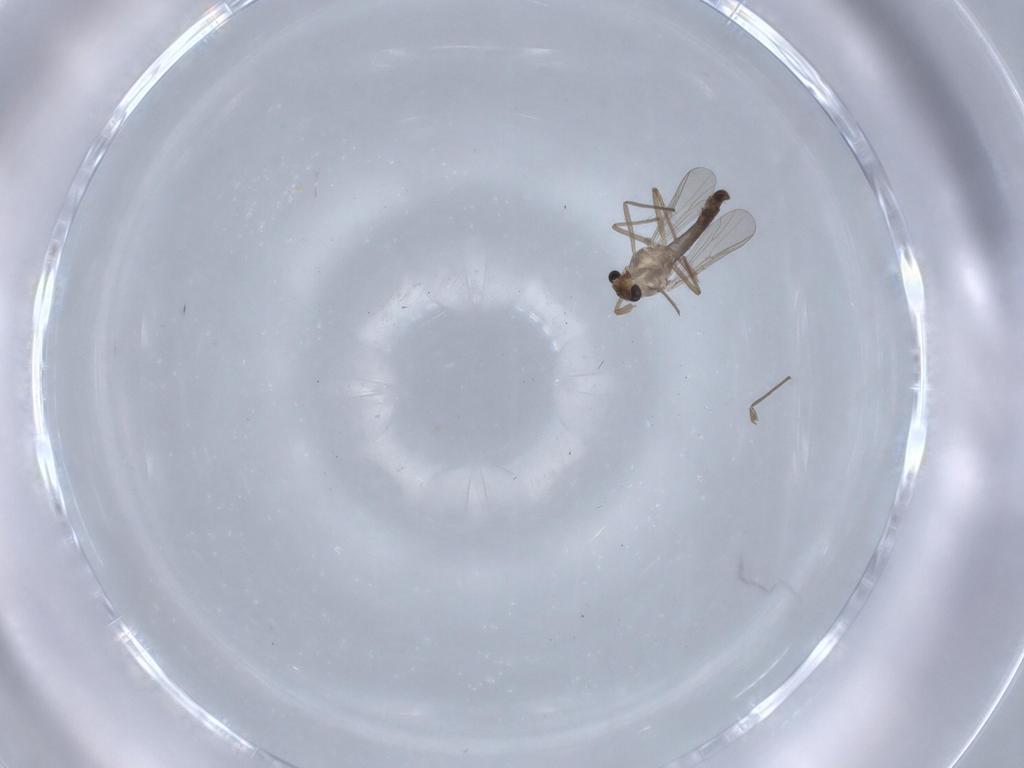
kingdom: Animalia
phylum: Arthropoda
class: Insecta
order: Diptera
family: Chironomidae
